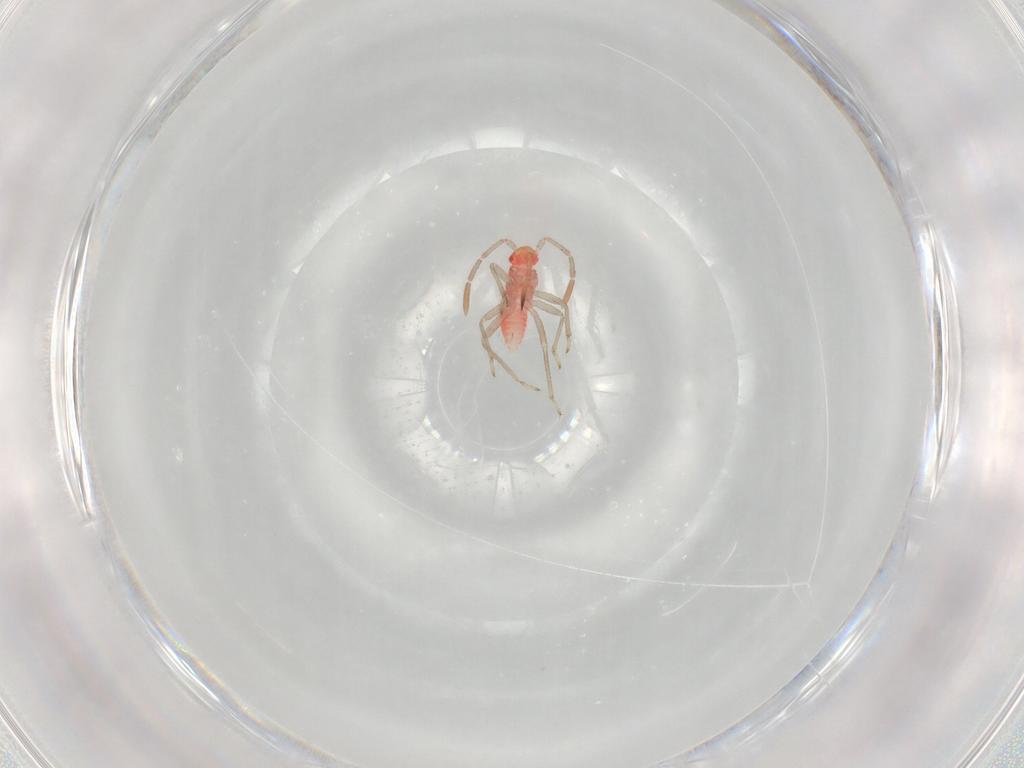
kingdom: Animalia
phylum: Arthropoda
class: Insecta
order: Hemiptera
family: Miridae
